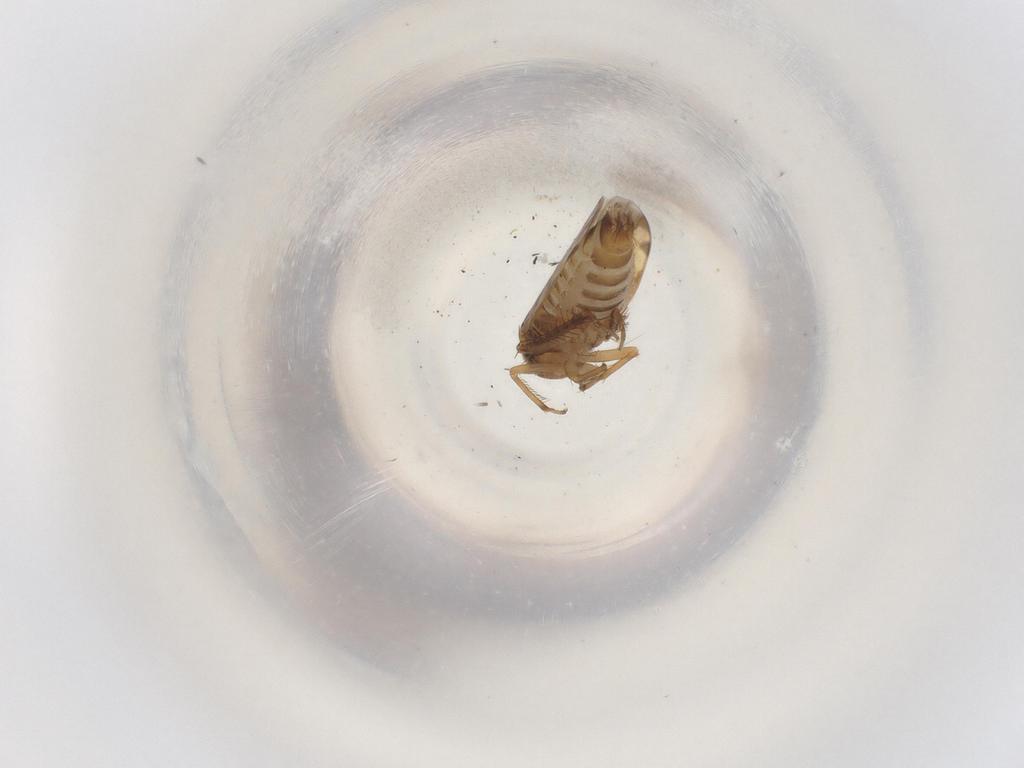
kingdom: Animalia
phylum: Arthropoda
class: Insecta
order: Hemiptera
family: Cicadellidae
